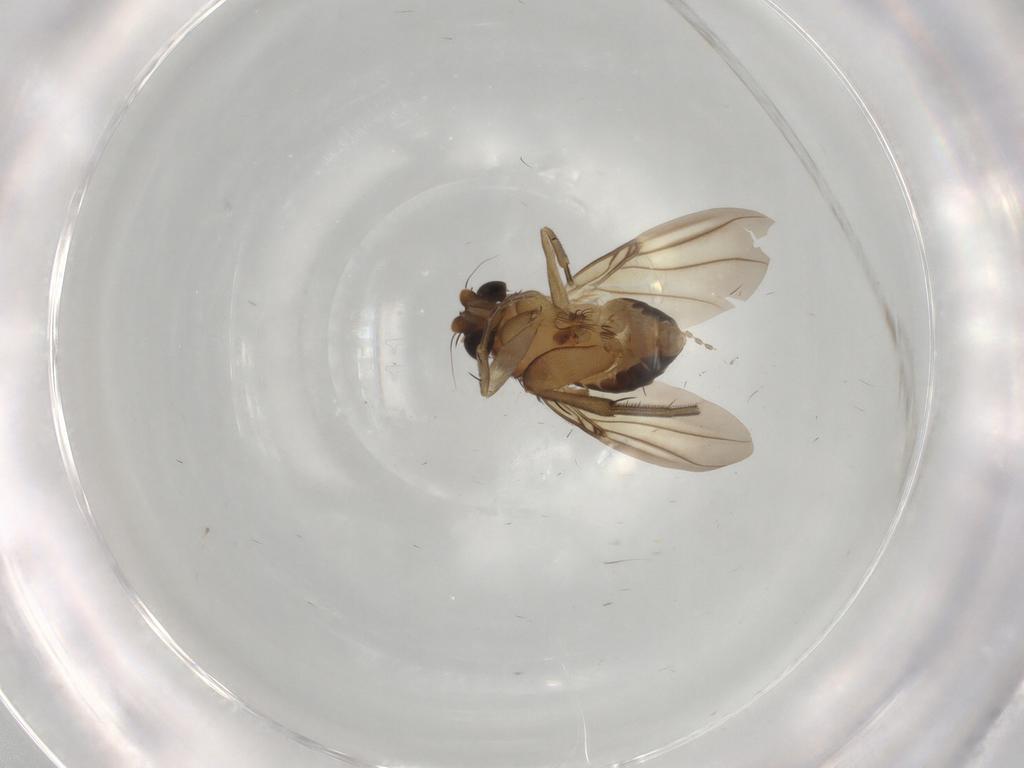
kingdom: Animalia
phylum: Arthropoda
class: Insecta
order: Diptera
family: Phoridae
